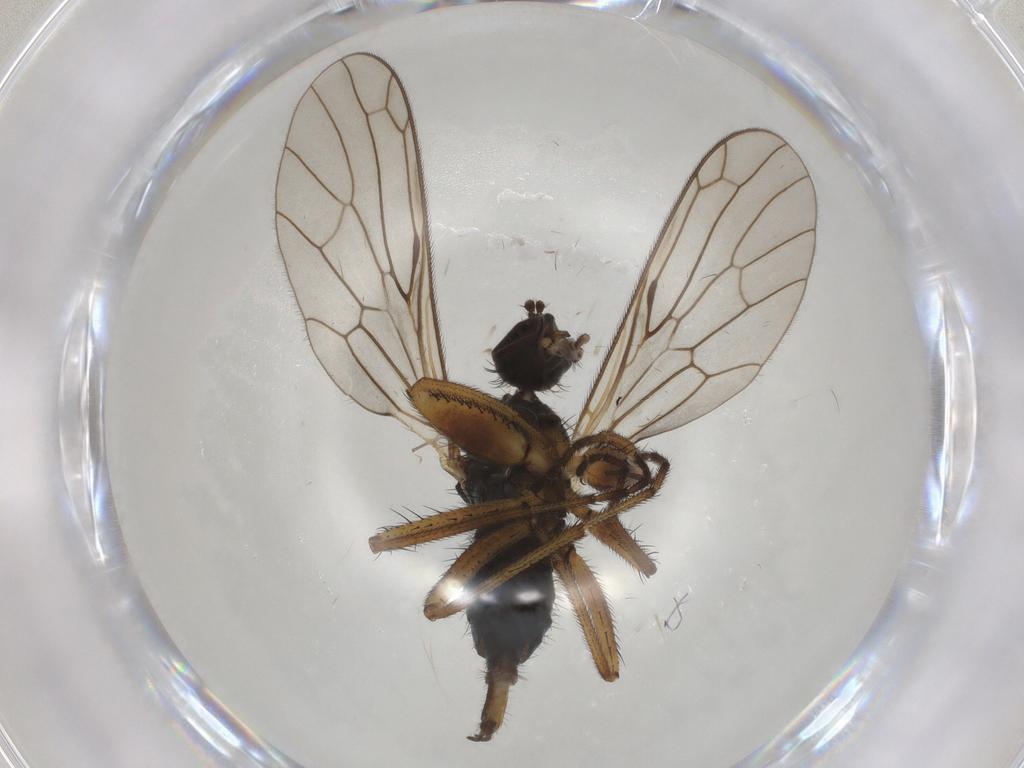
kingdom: Animalia
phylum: Arthropoda
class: Insecta
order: Diptera
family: Empididae
